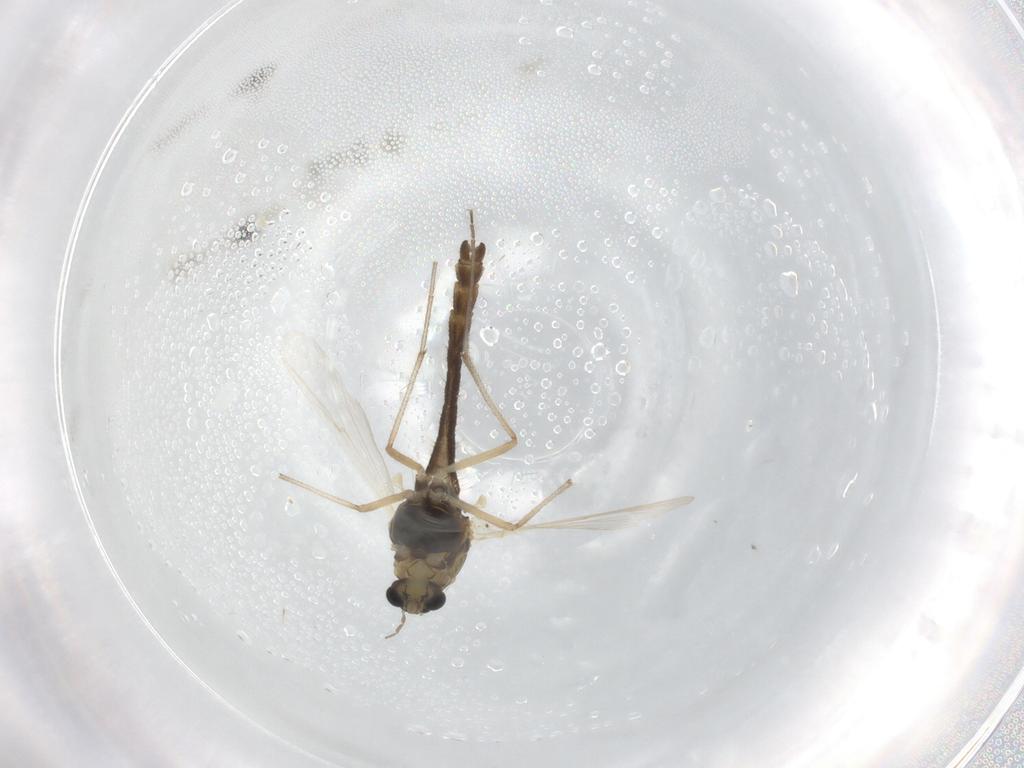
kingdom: Animalia
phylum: Arthropoda
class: Insecta
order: Diptera
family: Chironomidae
